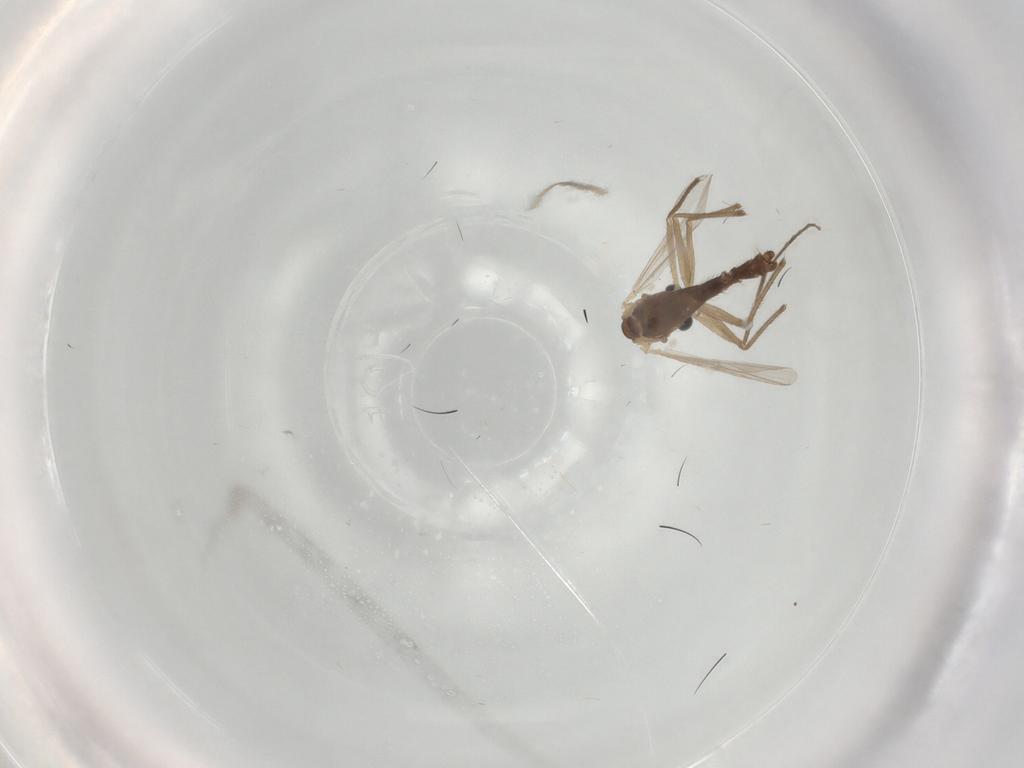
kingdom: Animalia
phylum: Arthropoda
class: Insecta
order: Diptera
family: Chironomidae
